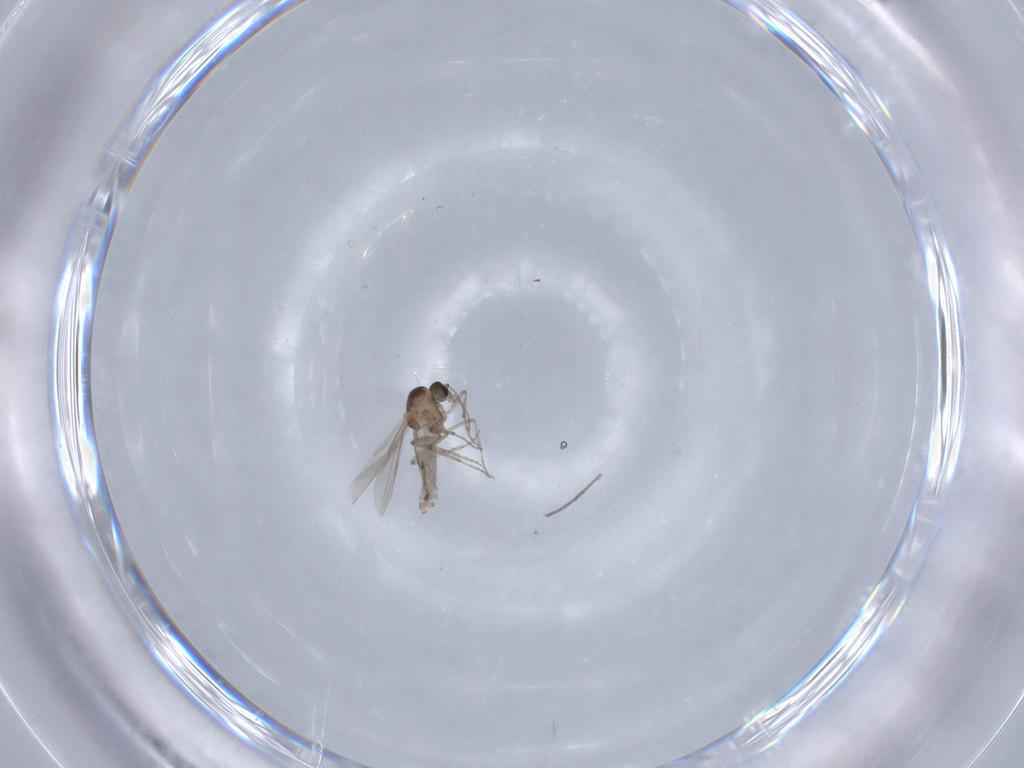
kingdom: Animalia
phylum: Arthropoda
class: Insecta
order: Diptera
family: Ceratopogonidae
